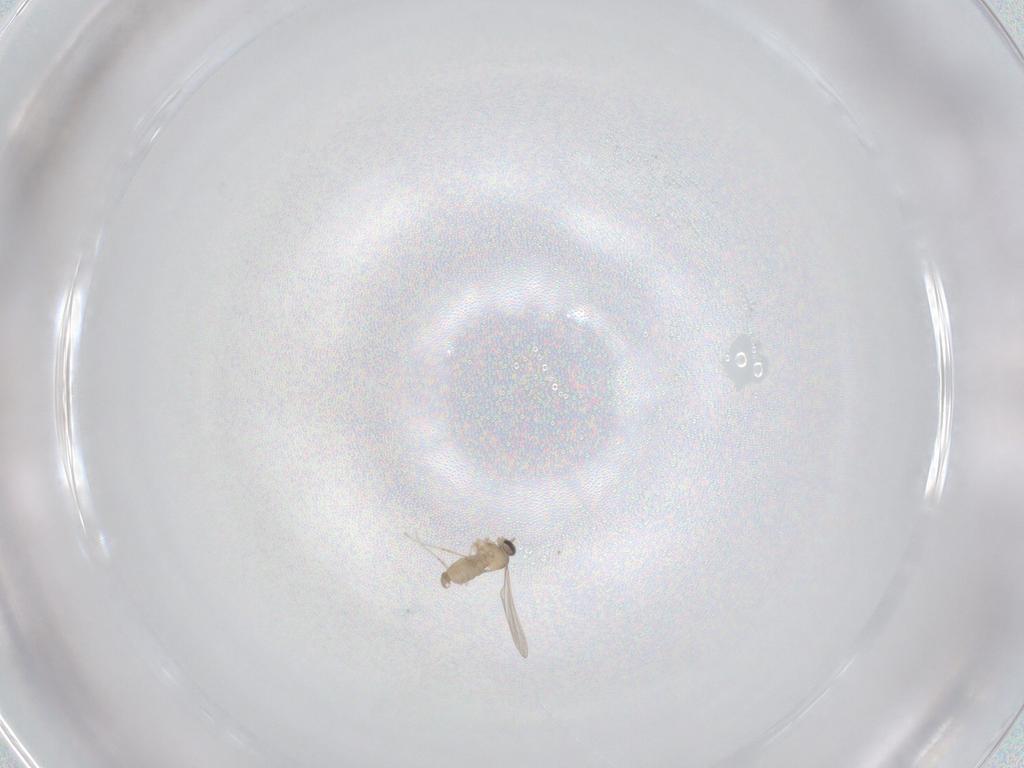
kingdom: Animalia
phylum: Arthropoda
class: Insecta
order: Diptera
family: Cecidomyiidae
